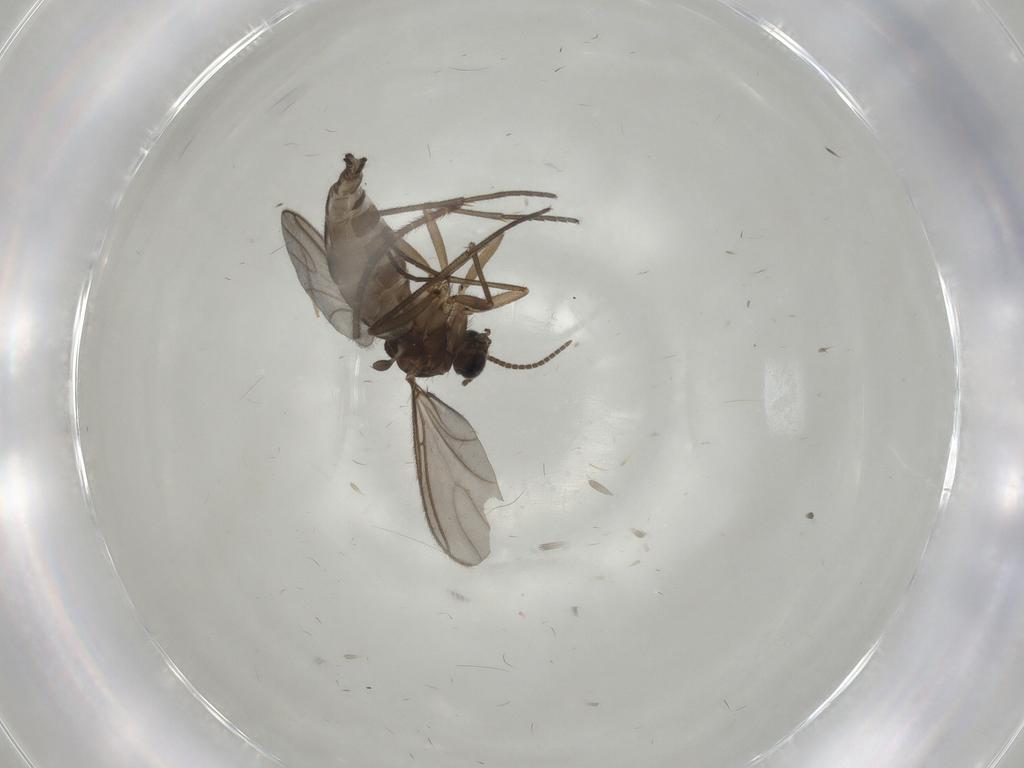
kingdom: Animalia
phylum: Arthropoda
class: Insecta
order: Diptera
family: Sciaridae
